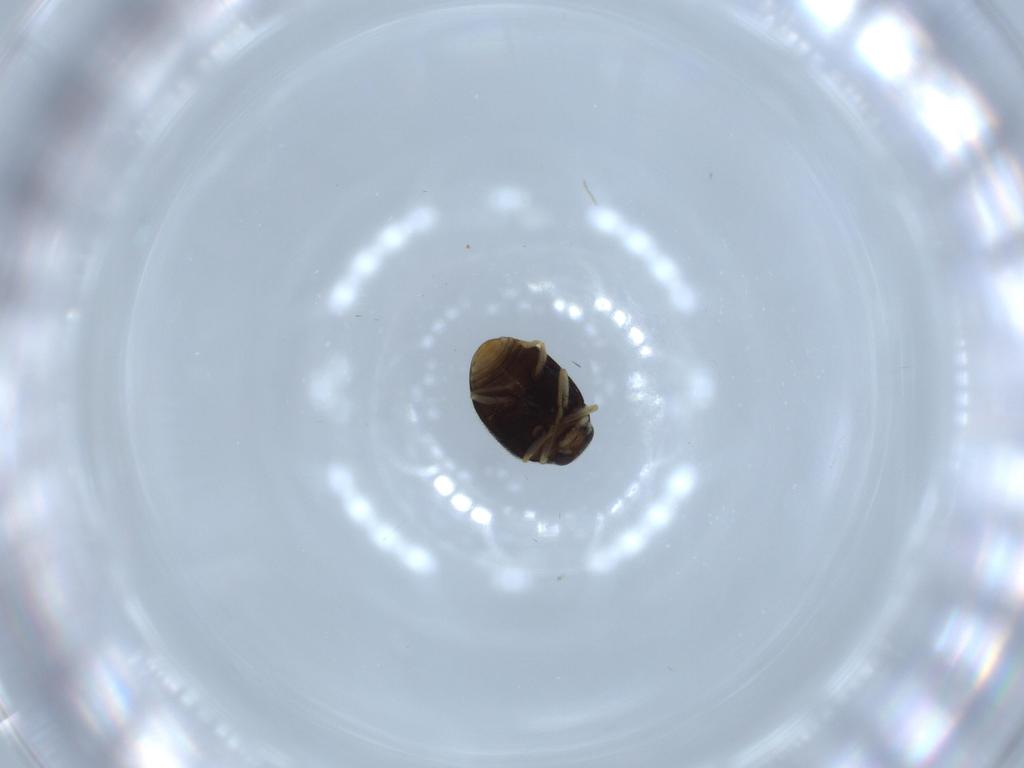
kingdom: Animalia
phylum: Arthropoda
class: Insecta
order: Coleoptera
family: Coccinellidae
